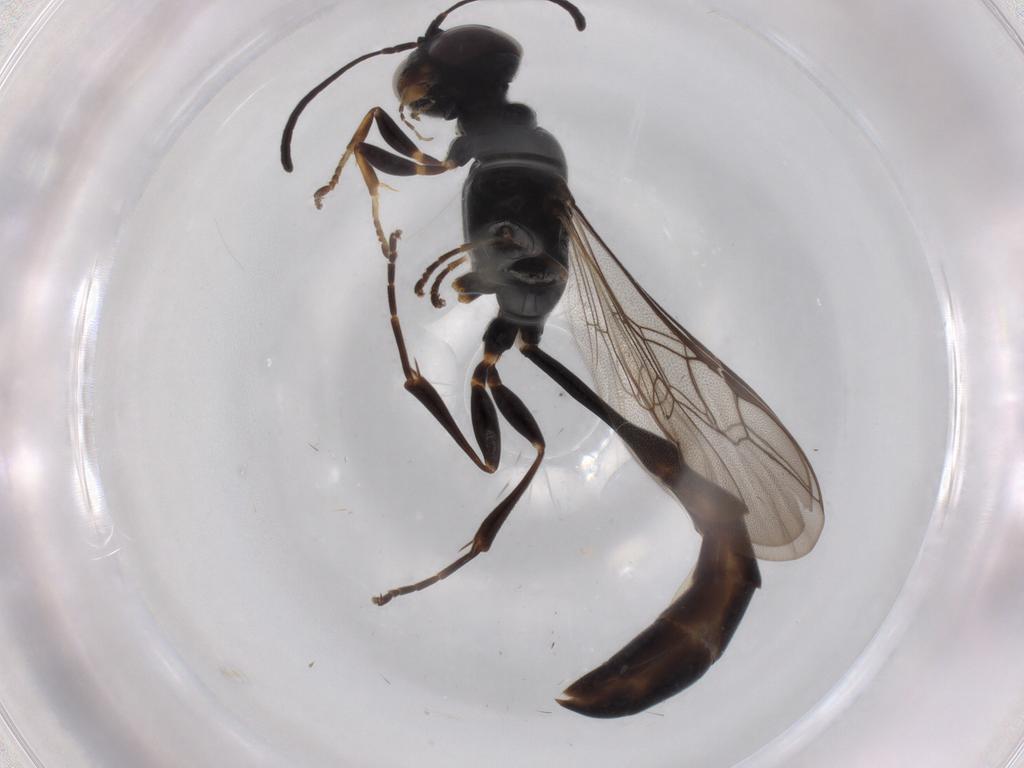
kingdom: Animalia
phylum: Arthropoda
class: Insecta
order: Hymenoptera
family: Crabronidae
